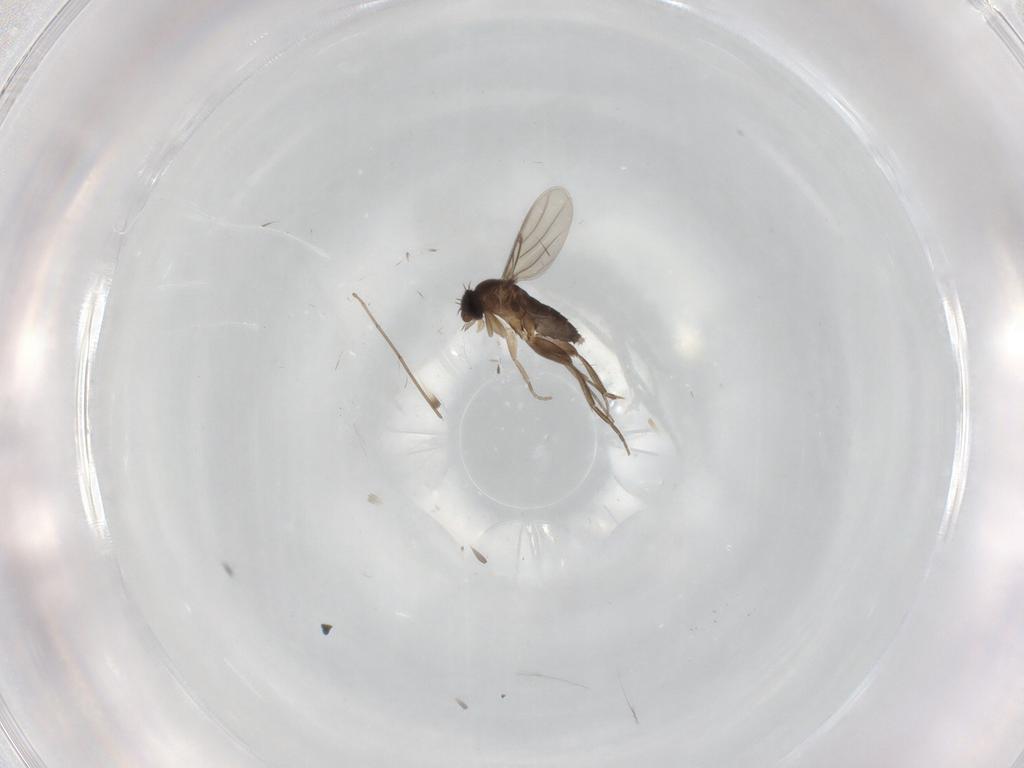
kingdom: Animalia
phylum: Arthropoda
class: Insecta
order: Diptera
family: Phoridae
